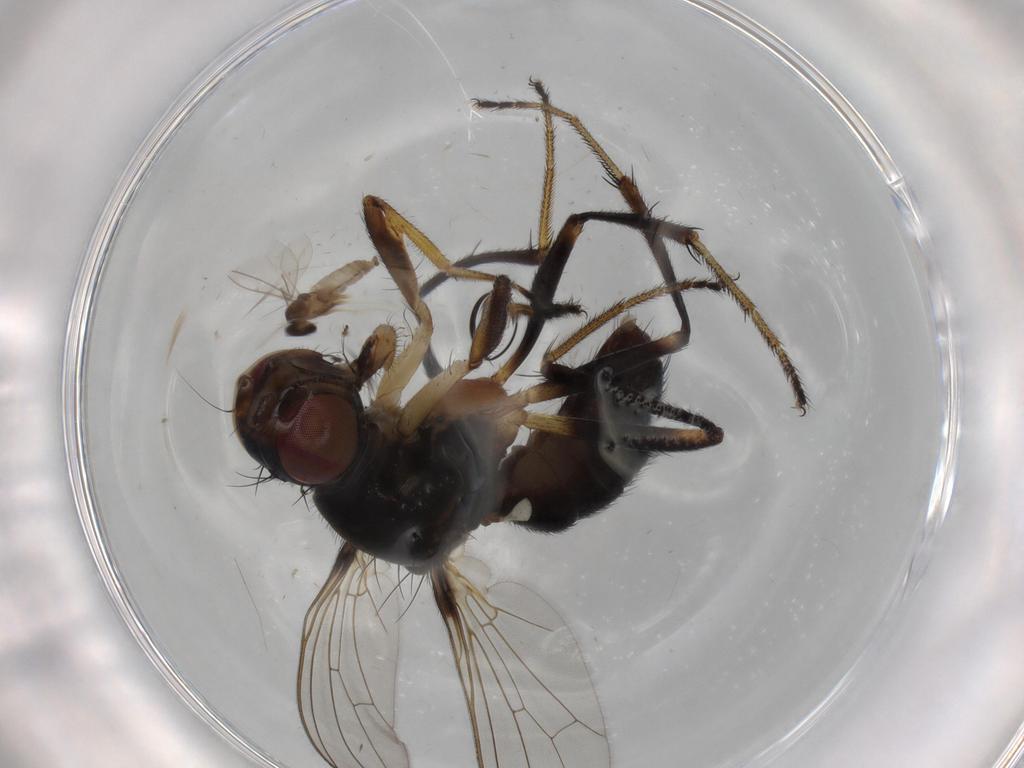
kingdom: Animalia
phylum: Arthropoda
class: Insecta
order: Diptera
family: Sepsidae
